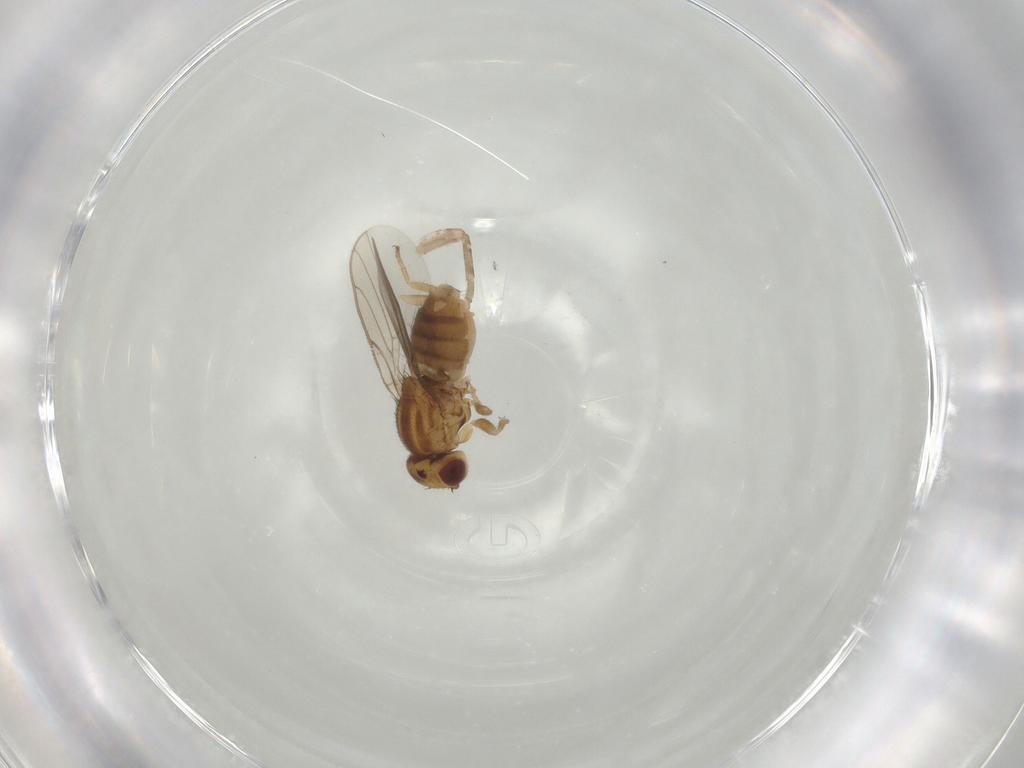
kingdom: Animalia
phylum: Arthropoda
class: Insecta
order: Diptera
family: Chloropidae
